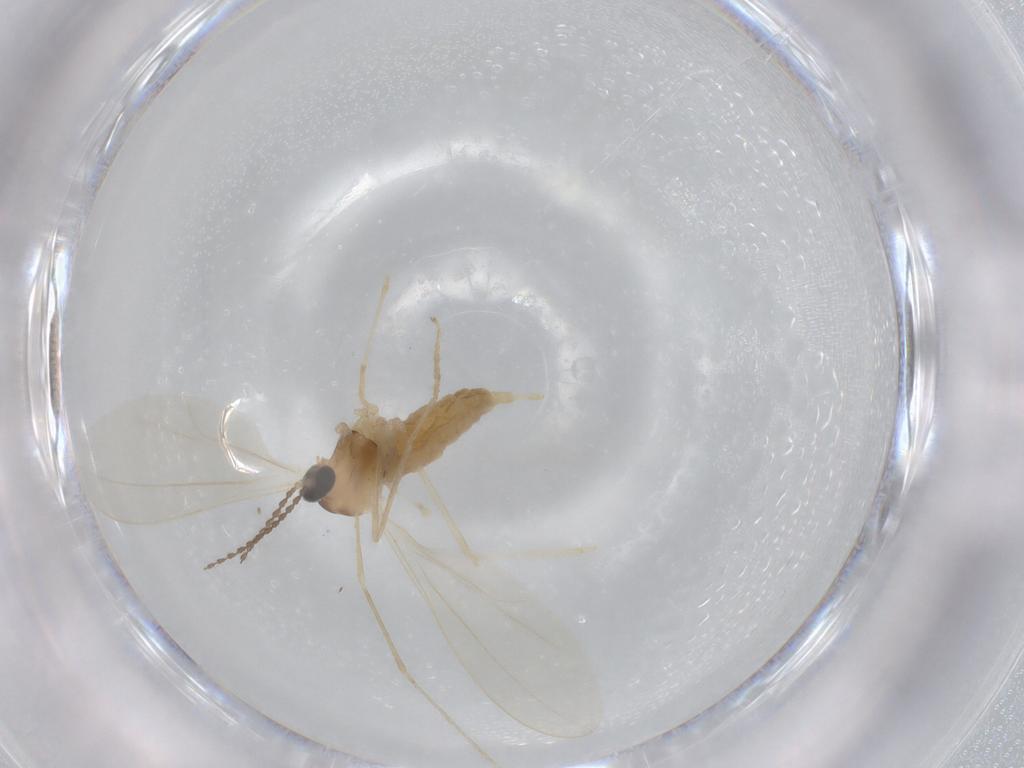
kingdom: Animalia
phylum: Arthropoda
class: Insecta
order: Diptera
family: Cecidomyiidae
